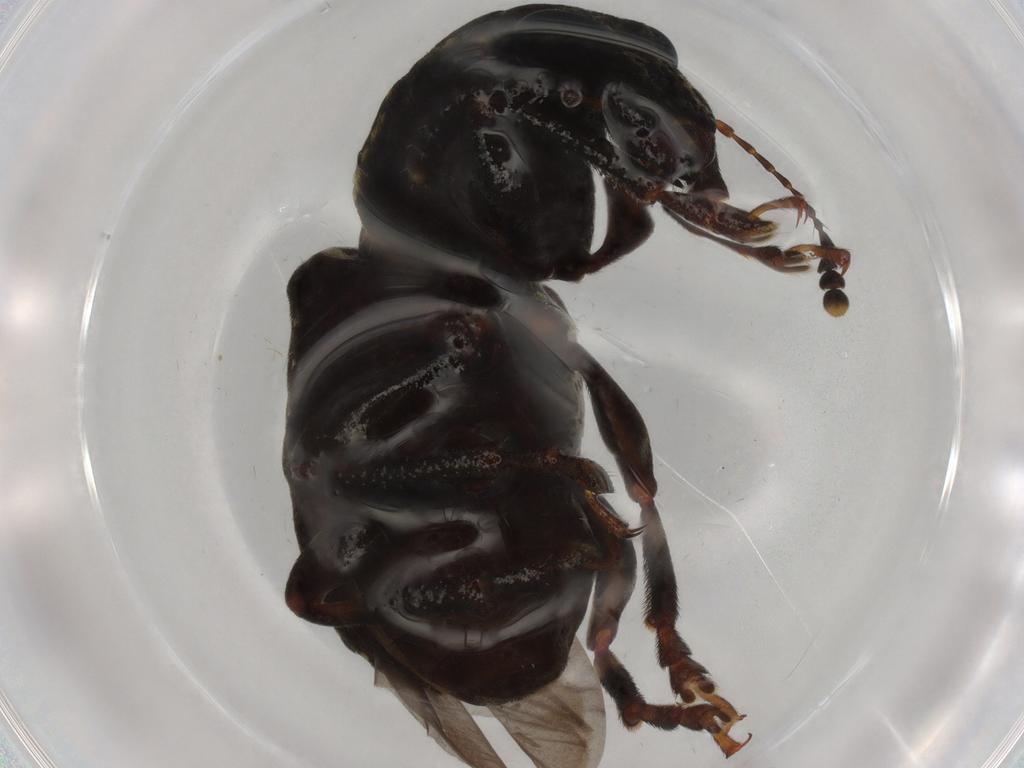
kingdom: Animalia
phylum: Arthropoda
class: Insecta
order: Coleoptera
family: Anthribidae
